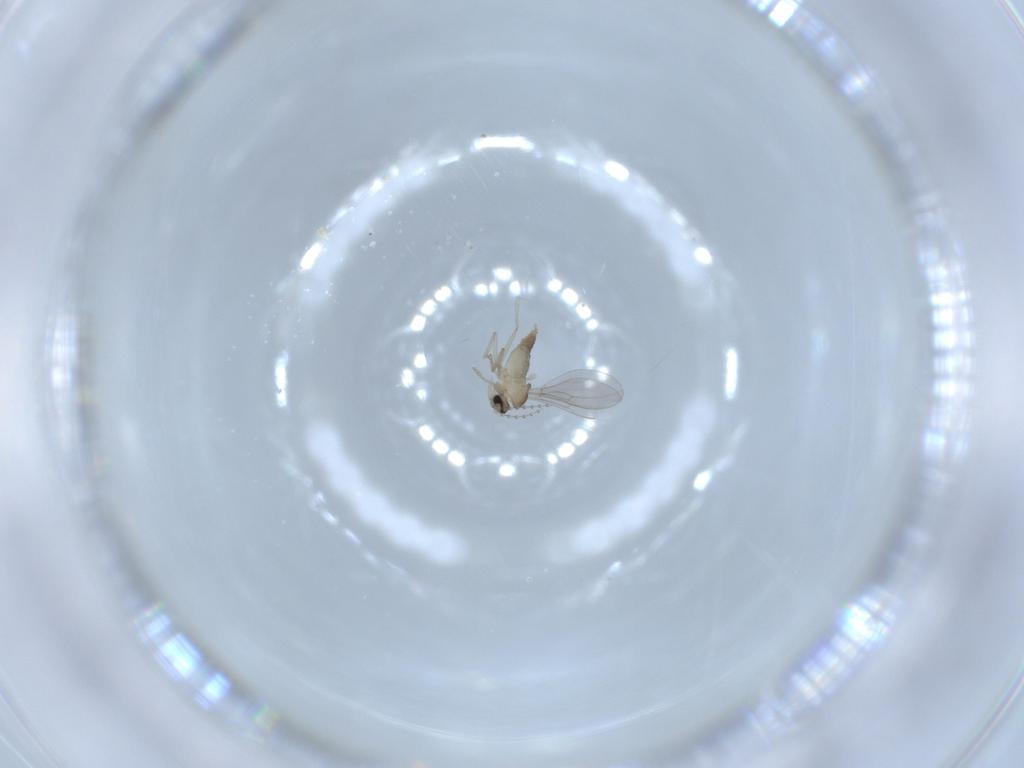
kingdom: Animalia
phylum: Arthropoda
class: Insecta
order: Diptera
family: Cecidomyiidae
